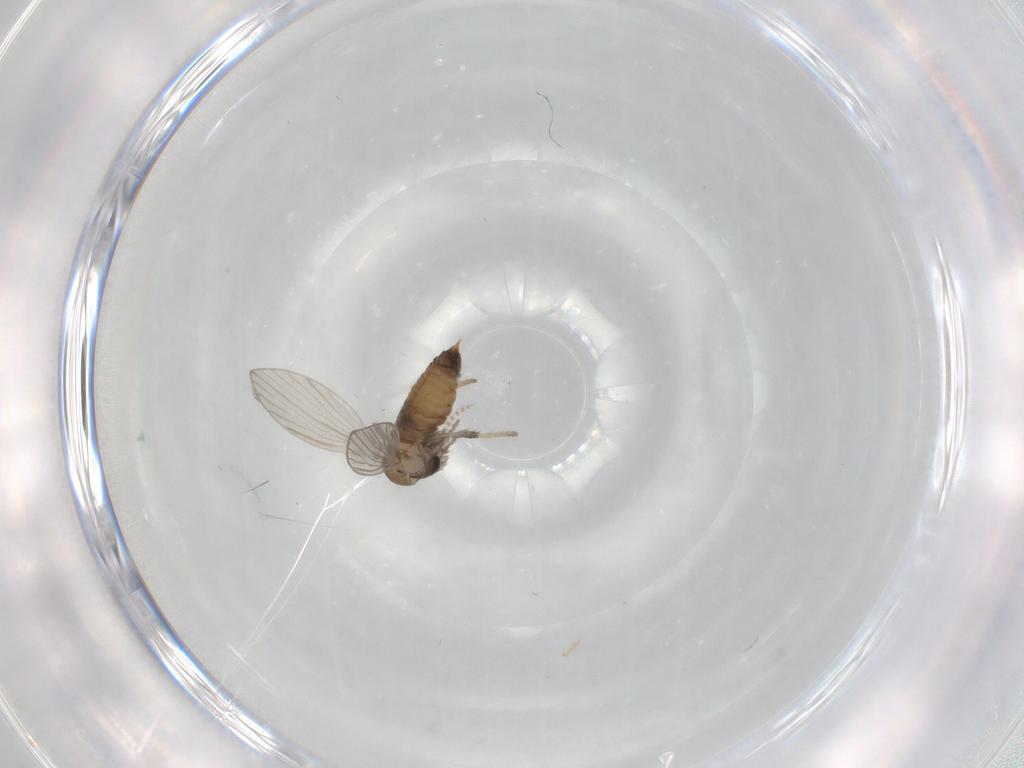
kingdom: Animalia
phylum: Arthropoda
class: Insecta
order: Diptera
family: Psychodidae
